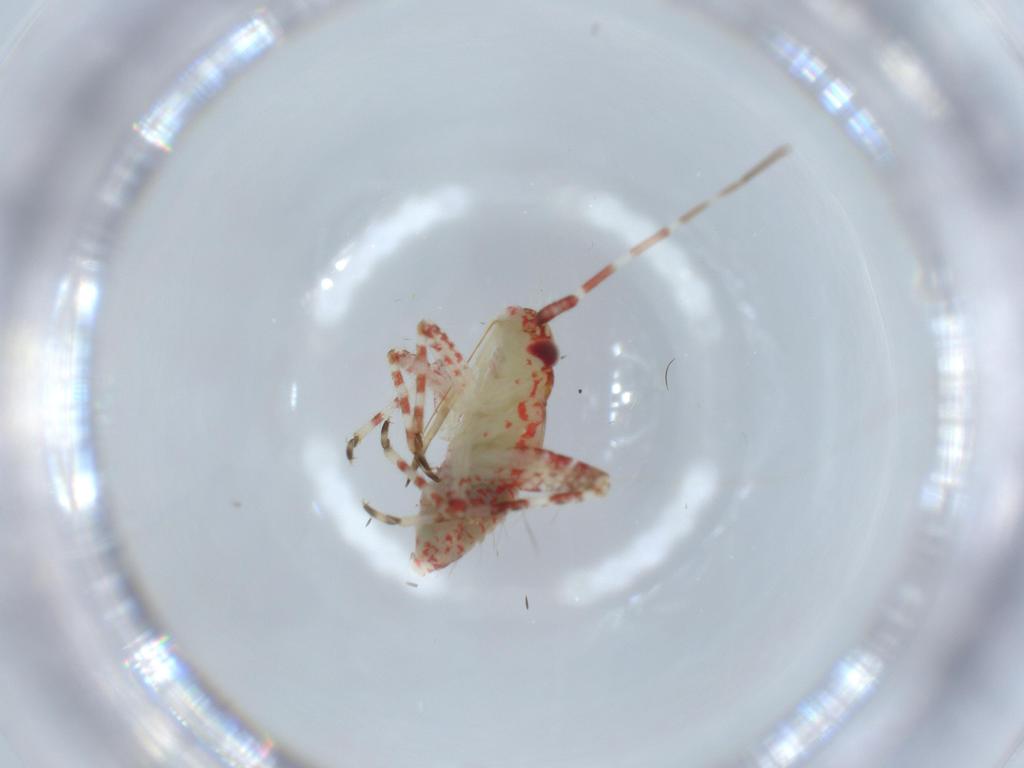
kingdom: Animalia
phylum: Arthropoda
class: Insecta
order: Hemiptera
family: Miridae
